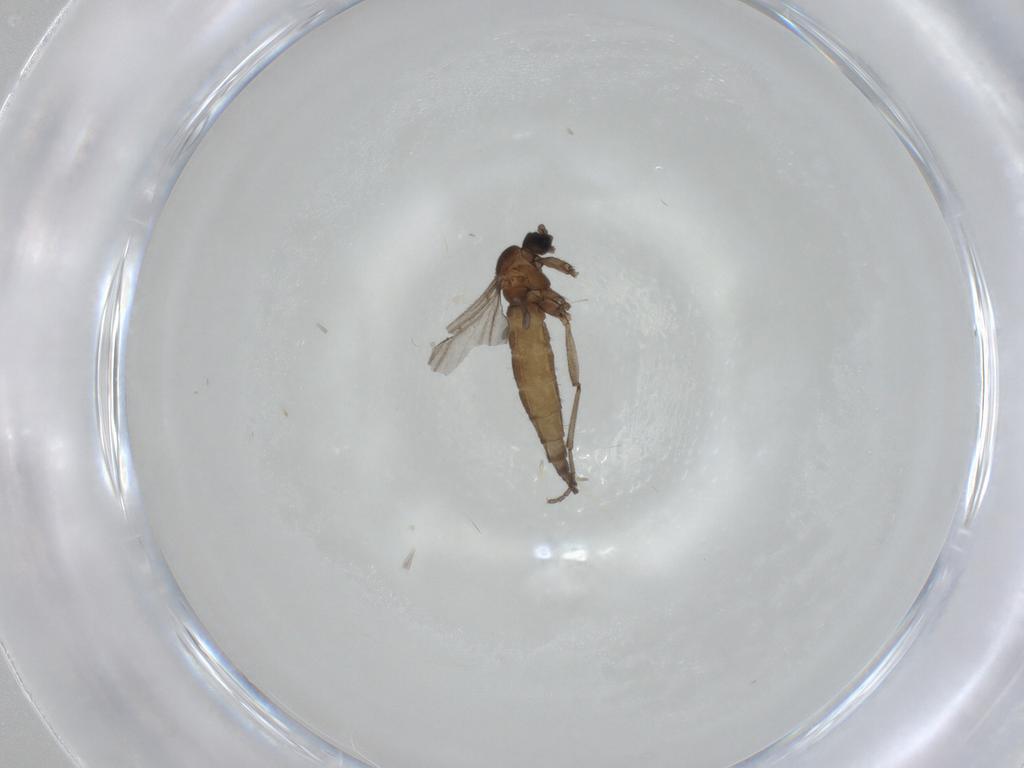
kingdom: Animalia
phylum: Arthropoda
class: Insecta
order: Diptera
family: Sciaridae
